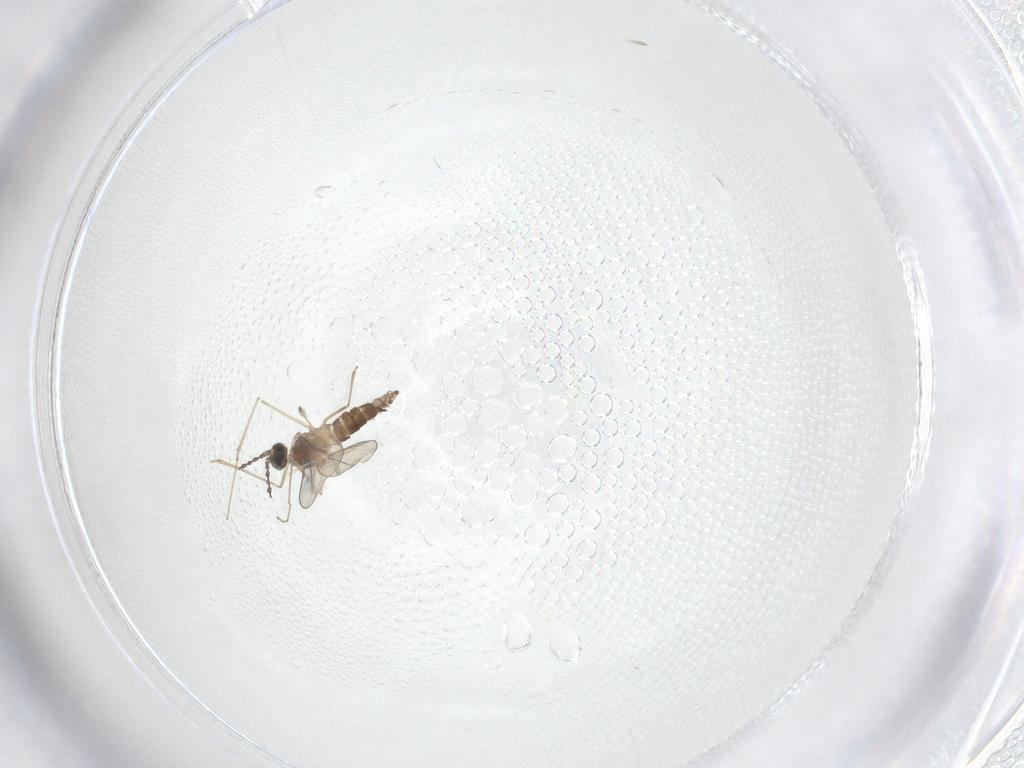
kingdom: Animalia
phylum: Arthropoda
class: Insecta
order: Diptera
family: Cecidomyiidae
